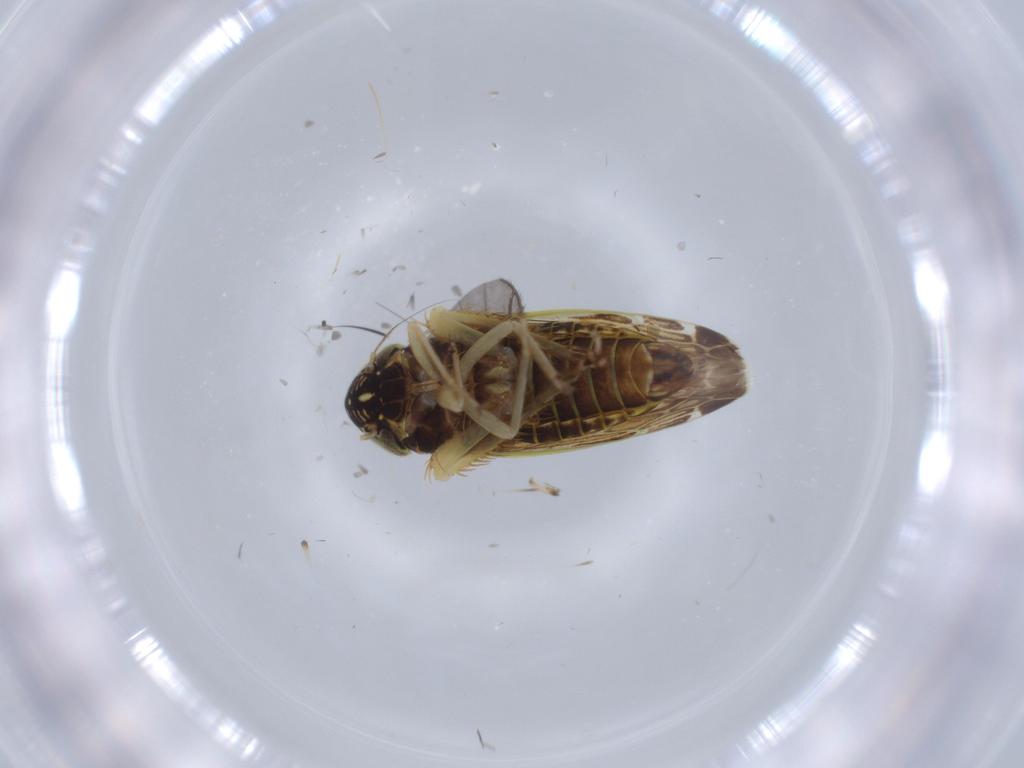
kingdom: Animalia
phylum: Arthropoda
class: Insecta
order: Hemiptera
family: Cicadellidae
